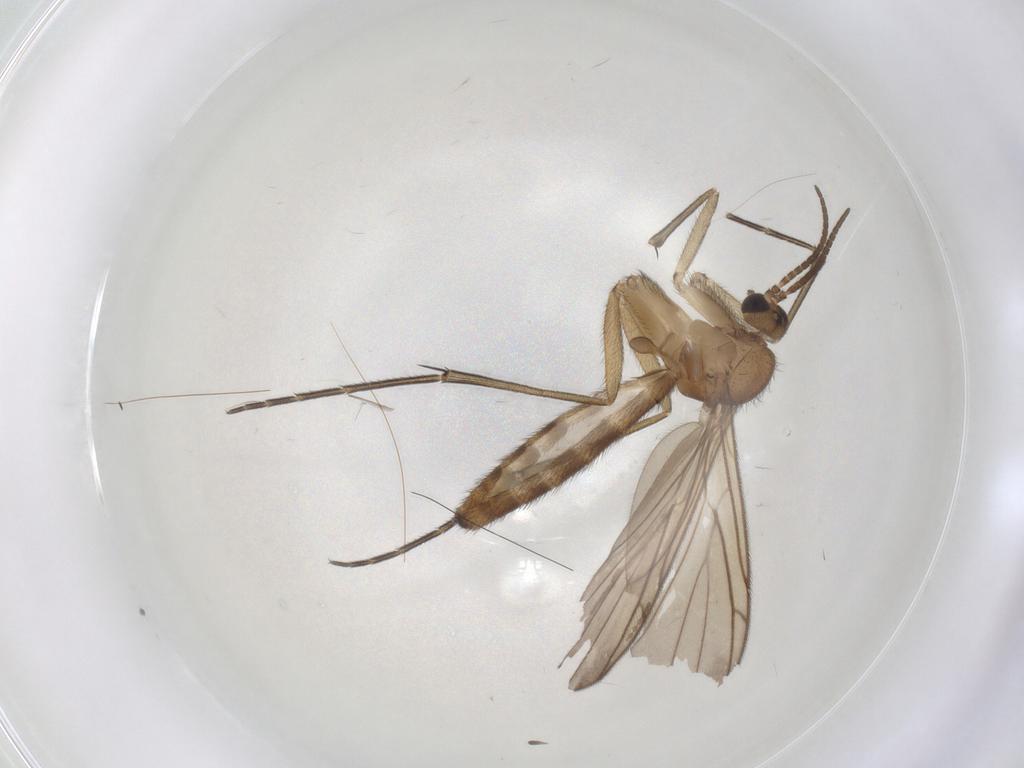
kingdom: Animalia
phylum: Arthropoda
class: Insecta
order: Diptera
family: Keroplatidae
